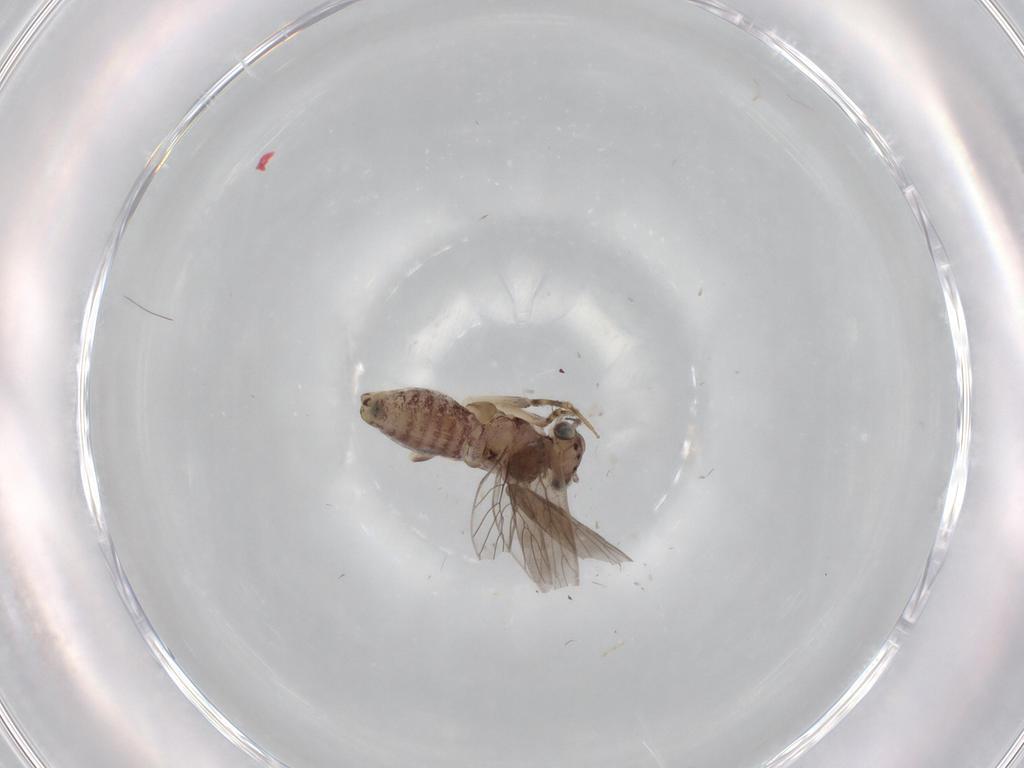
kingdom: Animalia
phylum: Arthropoda
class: Insecta
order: Psocodea
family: Lepidopsocidae
